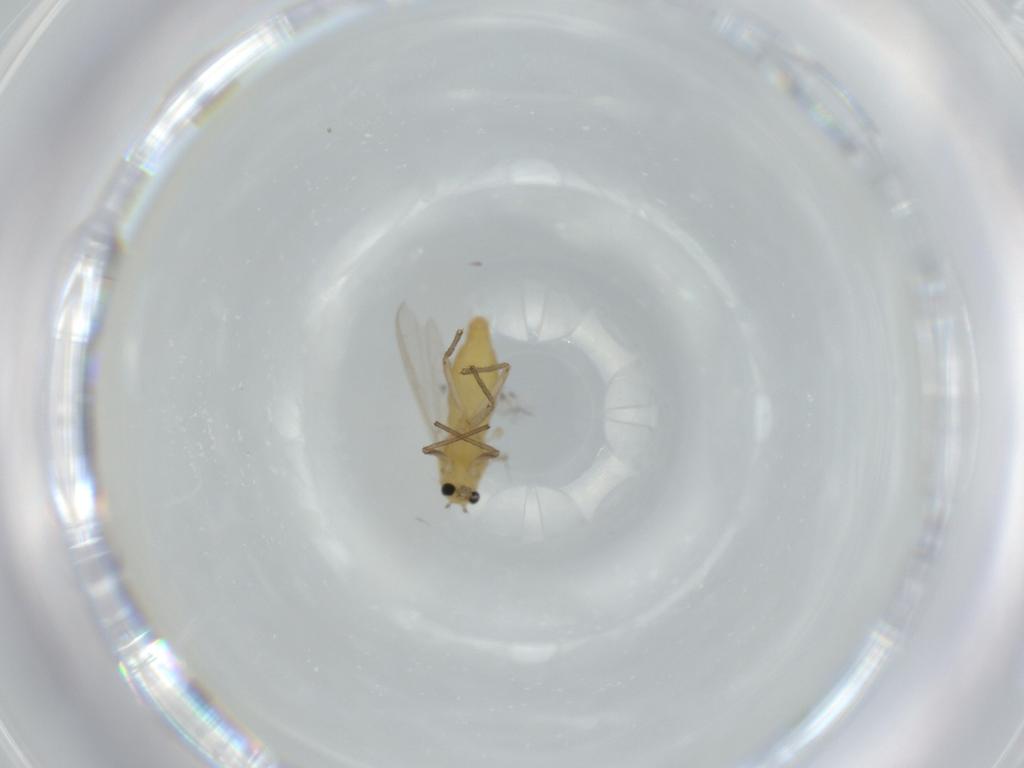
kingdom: Animalia
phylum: Arthropoda
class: Insecta
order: Diptera
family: Chironomidae
